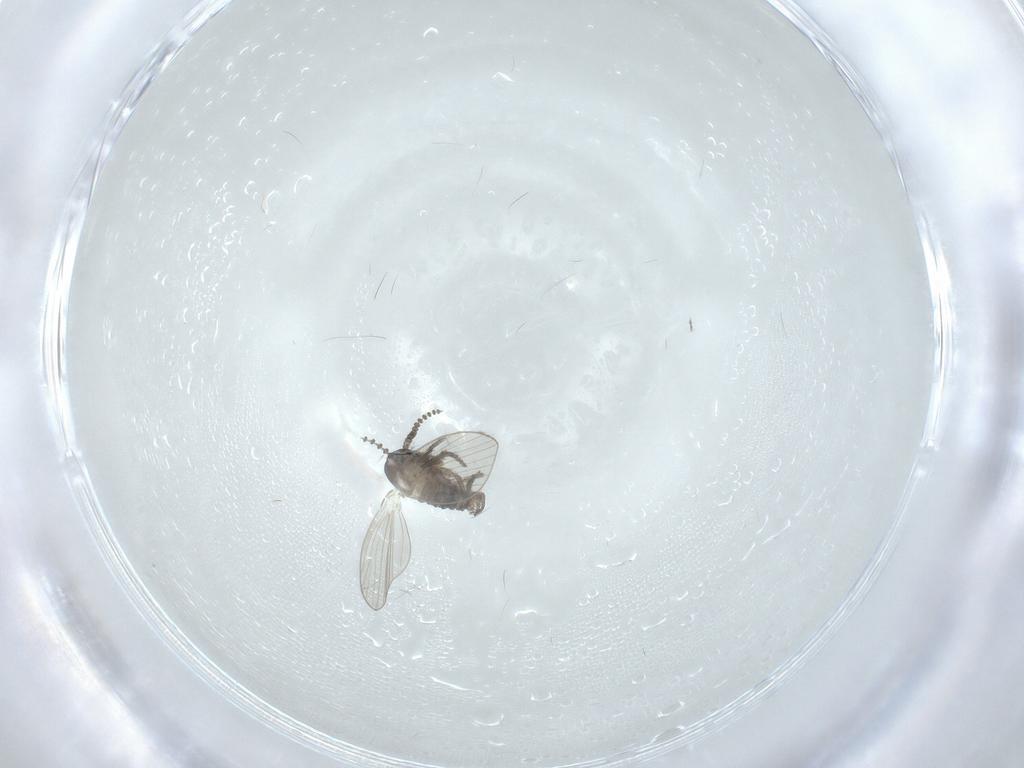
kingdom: Animalia
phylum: Arthropoda
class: Insecta
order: Diptera
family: Psychodidae
